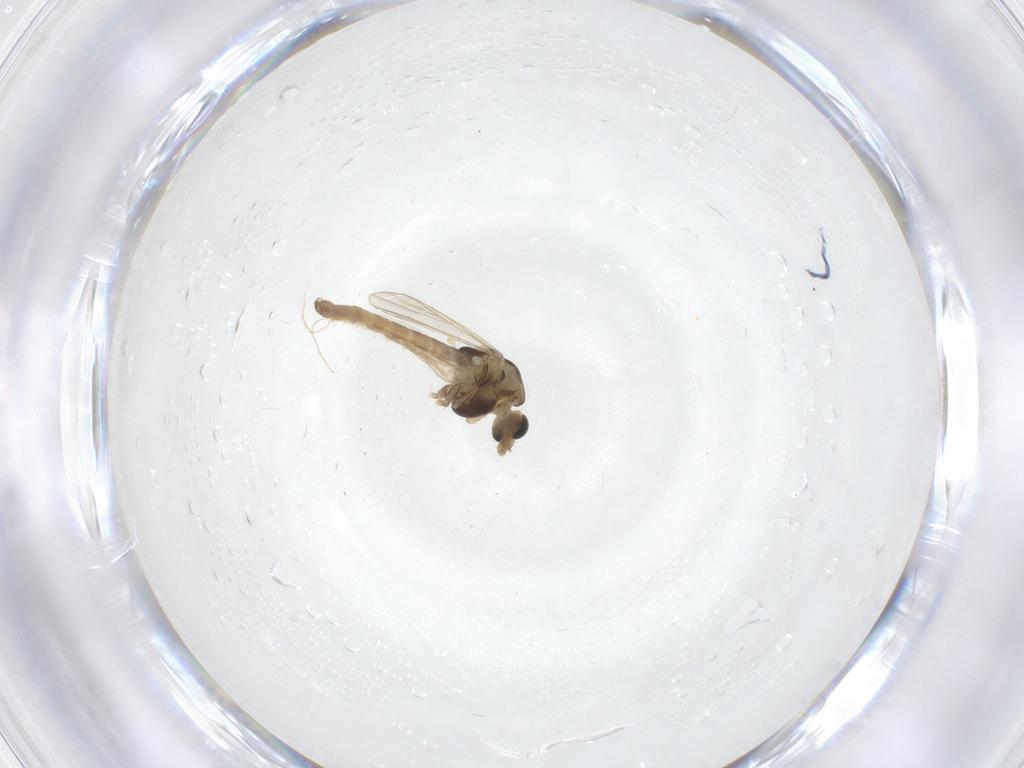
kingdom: Animalia
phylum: Arthropoda
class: Insecta
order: Diptera
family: Chironomidae
